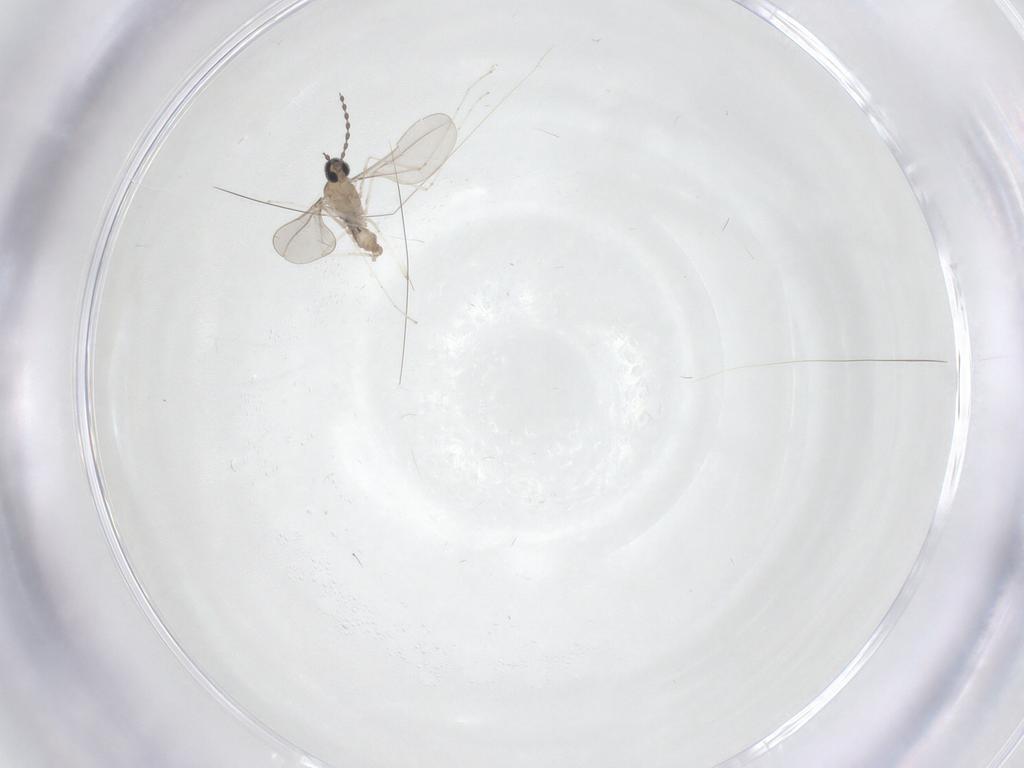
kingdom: Animalia
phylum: Arthropoda
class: Insecta
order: Diptera
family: Cecidomyiidae
